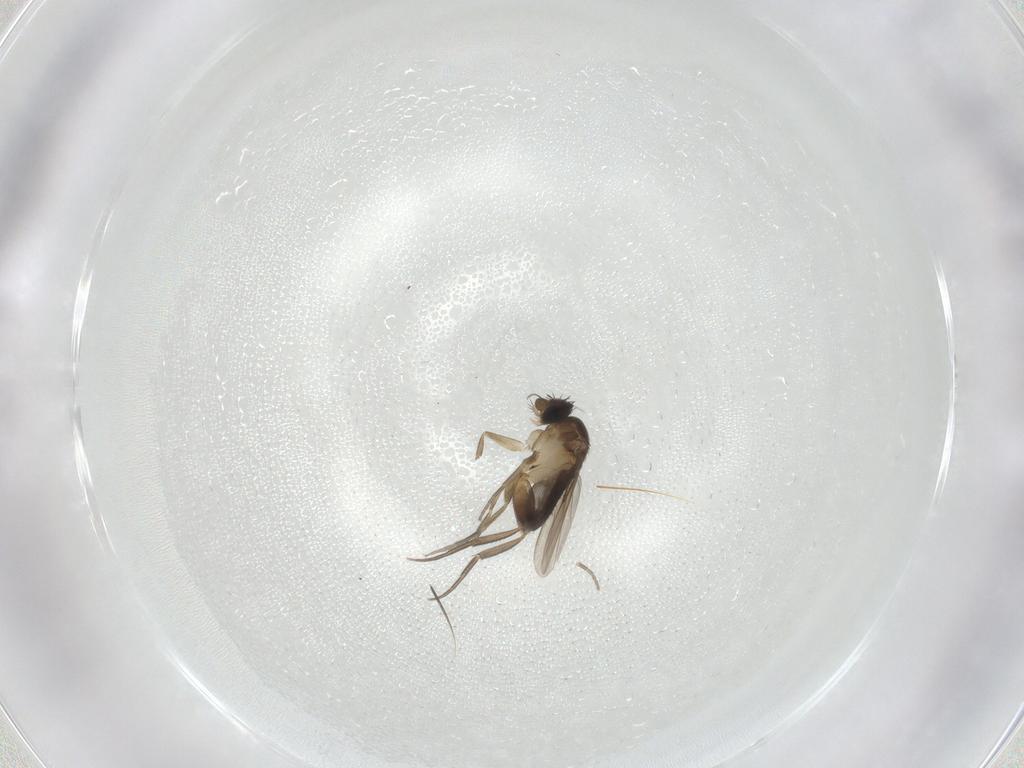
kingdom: Animalia
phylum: Arthropoda
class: Insecta
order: Diptera
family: Phoridae
